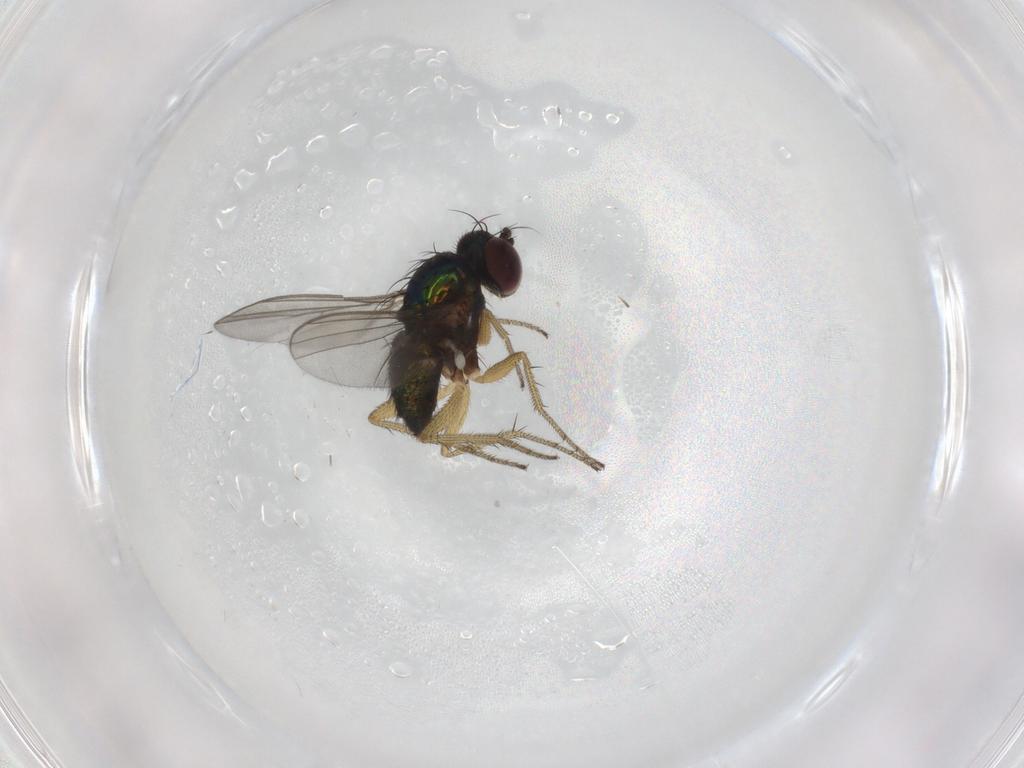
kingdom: Animalia
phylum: Arthropoda
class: Insecta
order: Diptera
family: Dolichopodidae
